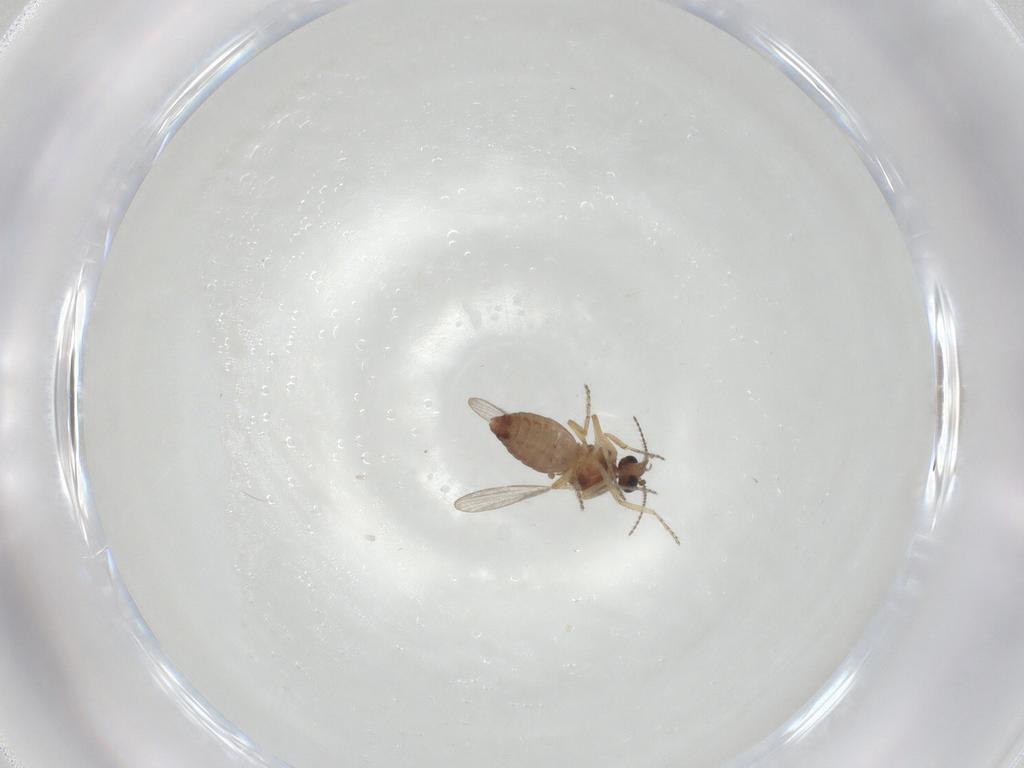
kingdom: Animalia
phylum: Arthropoda
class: Insecta
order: Diptera
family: Ceratopogonidae
